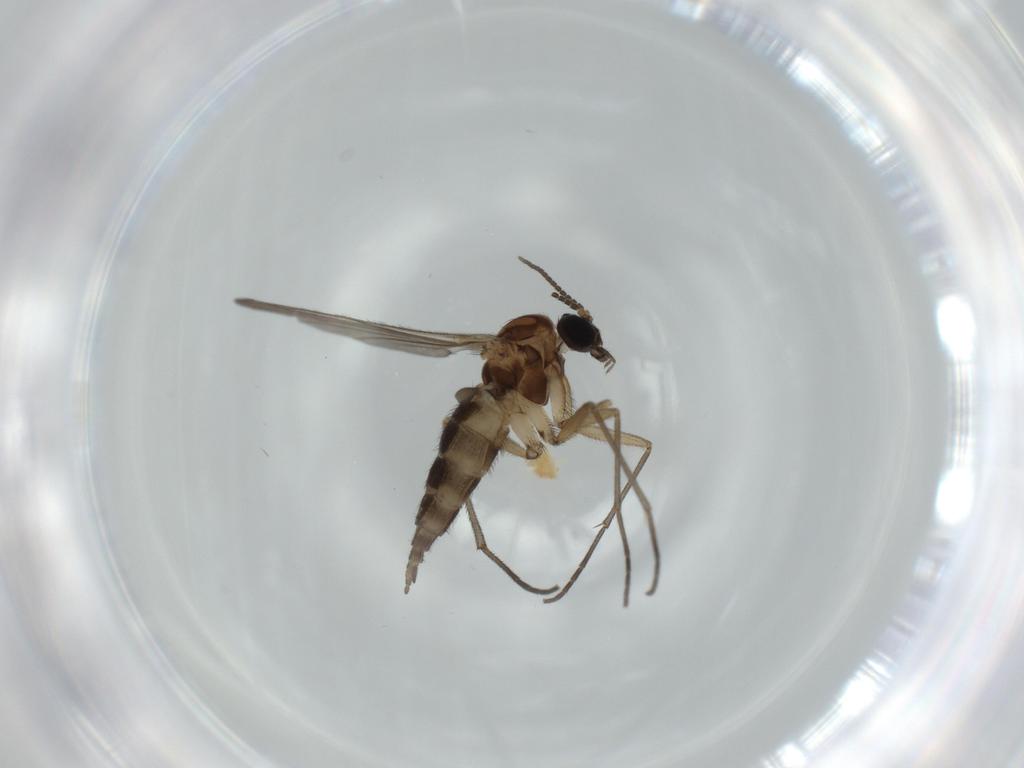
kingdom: Animalia
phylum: Arthropoda
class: Insecta
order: Diptera
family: Sciaridae
